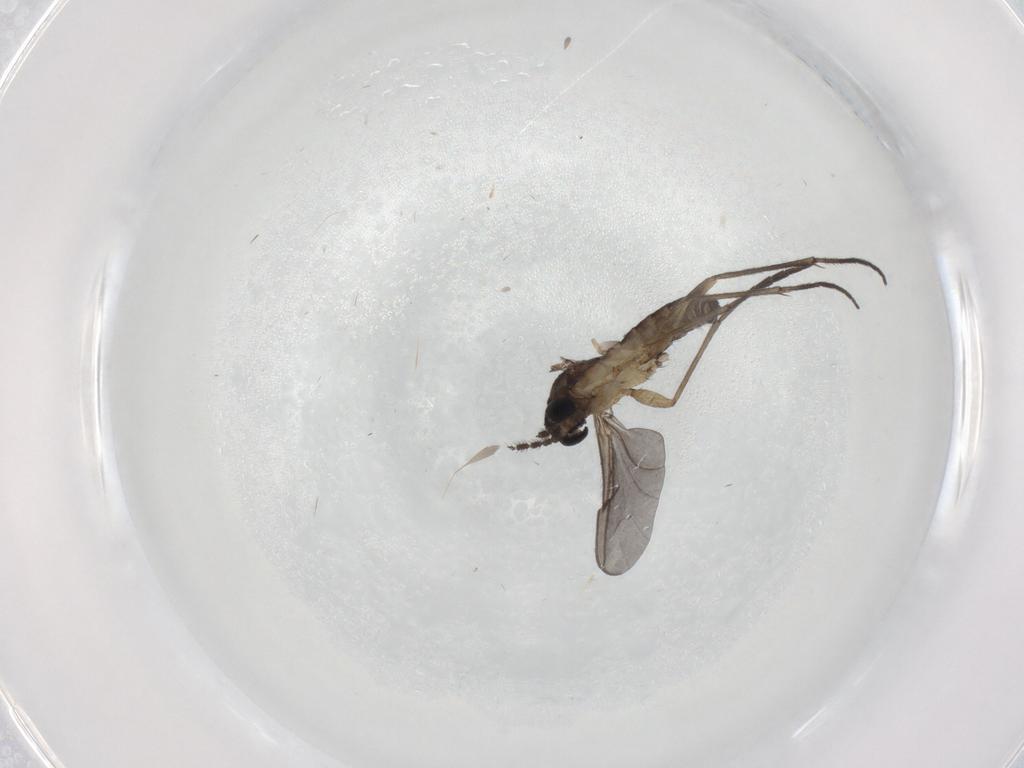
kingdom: Animalia
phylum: Arthropoda
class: Insecta
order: Diptera
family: Sciaridae
